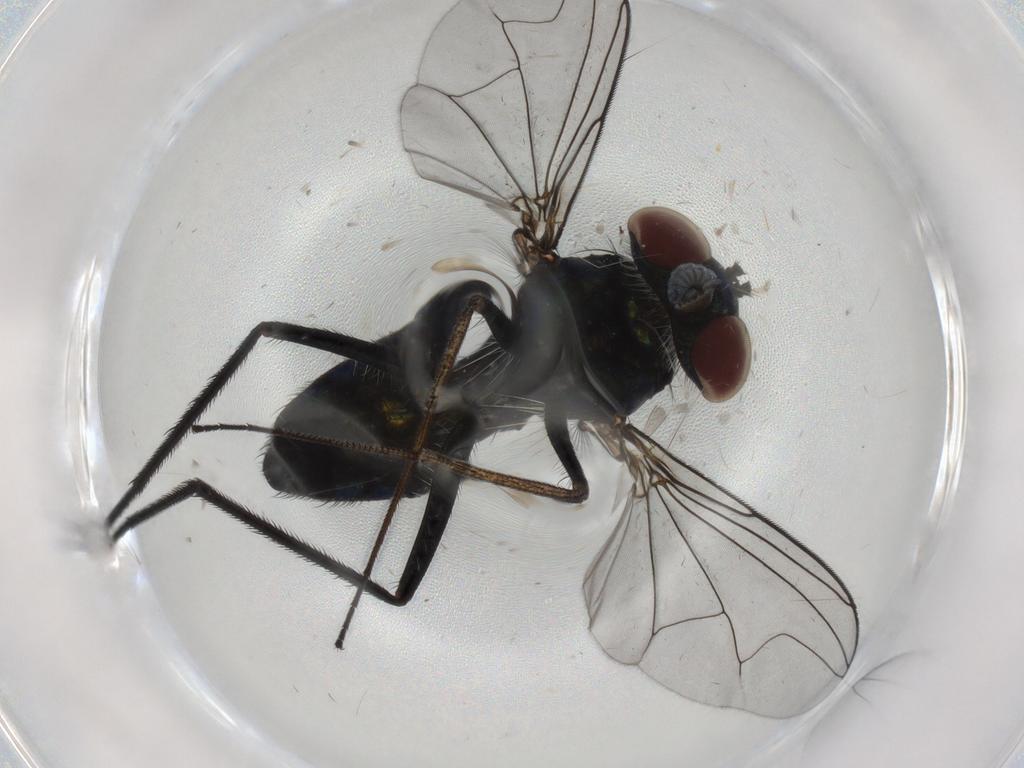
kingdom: Animalia
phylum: Arthropoda
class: Insecta
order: Diptera
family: Dolichopodidae
